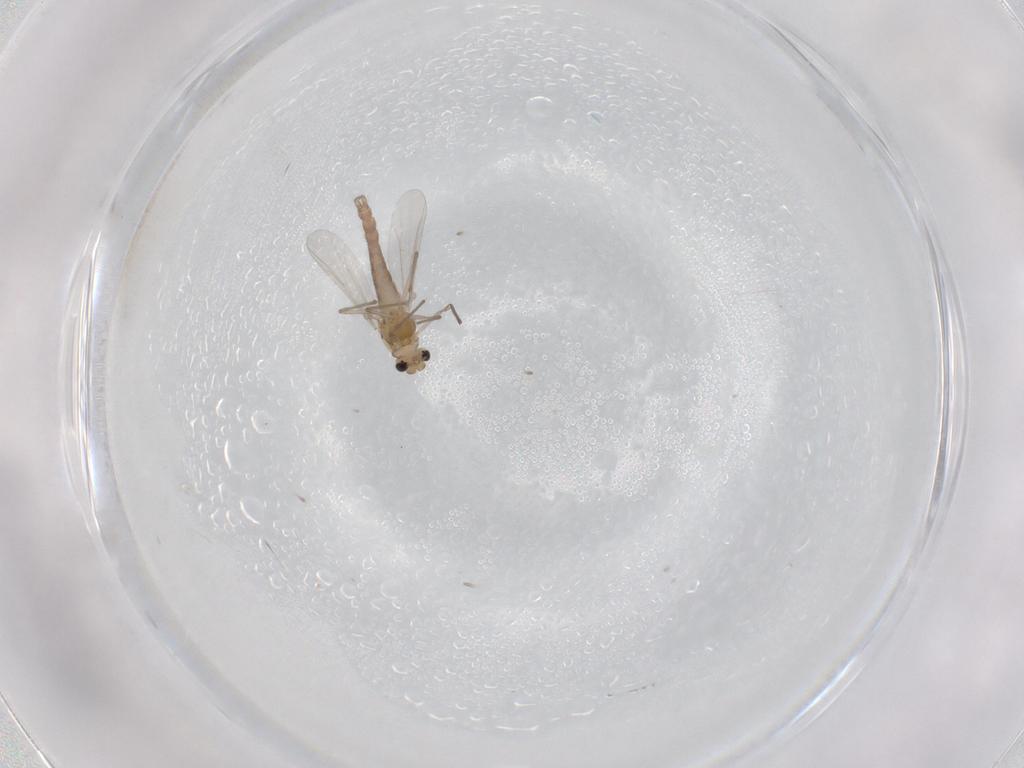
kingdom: Animalia
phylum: Arthropoda
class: Insecta
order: Diptera
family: Chironomidae
